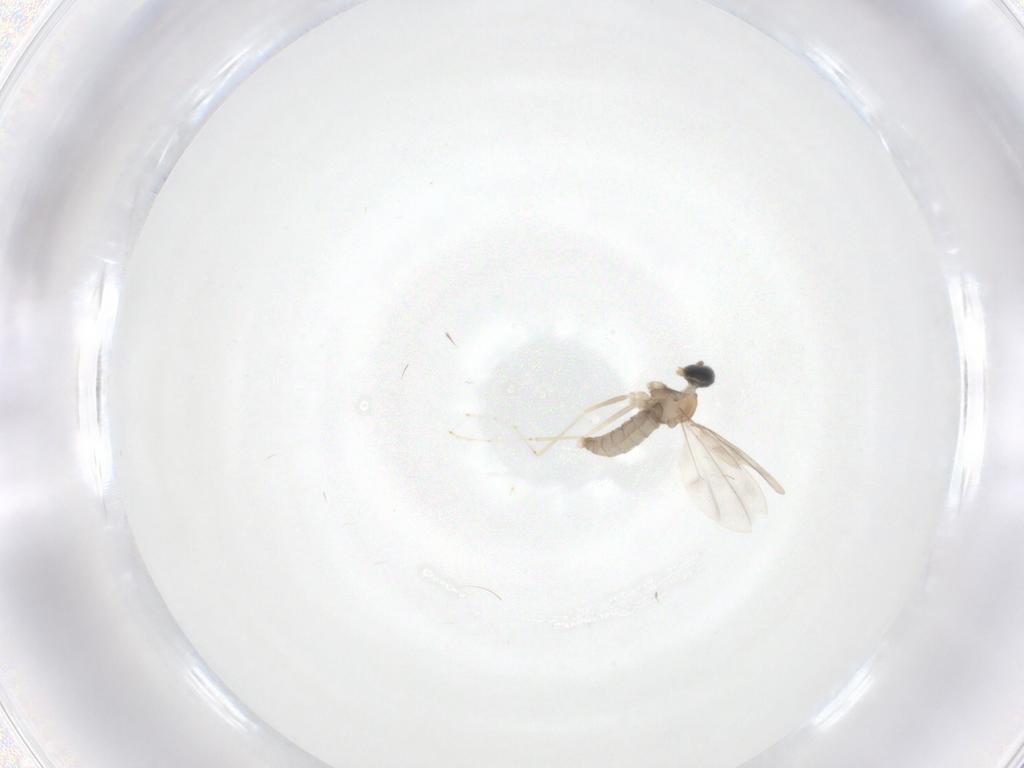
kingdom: Animalia
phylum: Arthropoda
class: Insecta
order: Diptera
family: Cecidomyiidae
